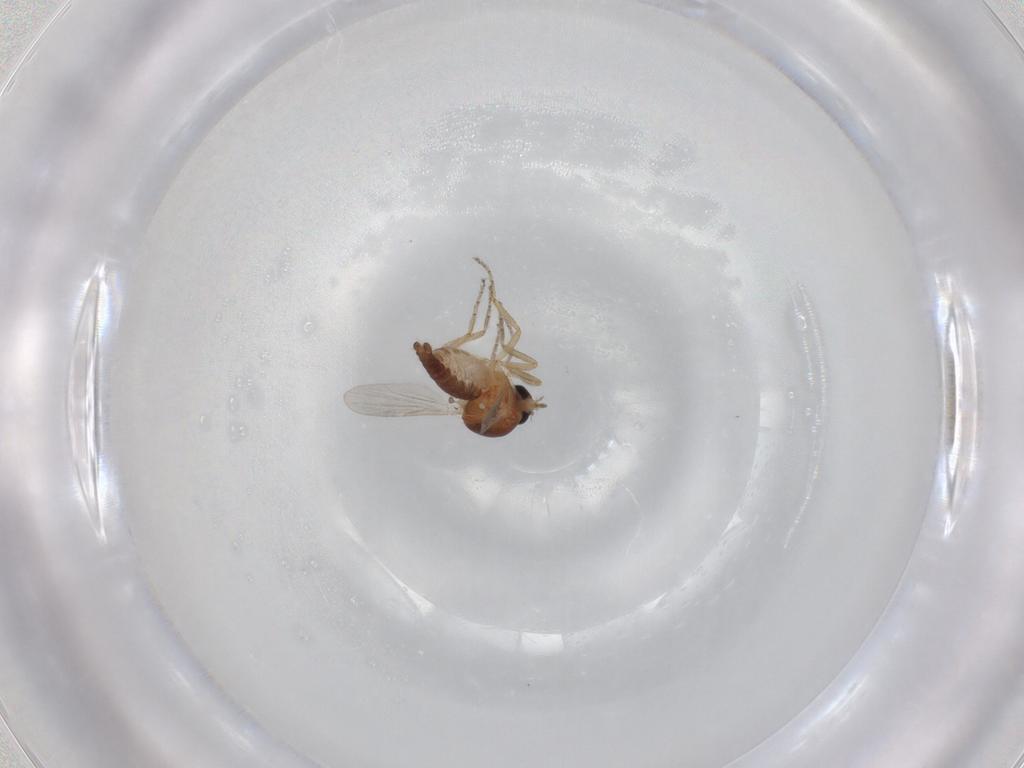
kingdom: Animalia
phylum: Arthropoda
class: Insecta
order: Diptera
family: Ceratopogonidae
